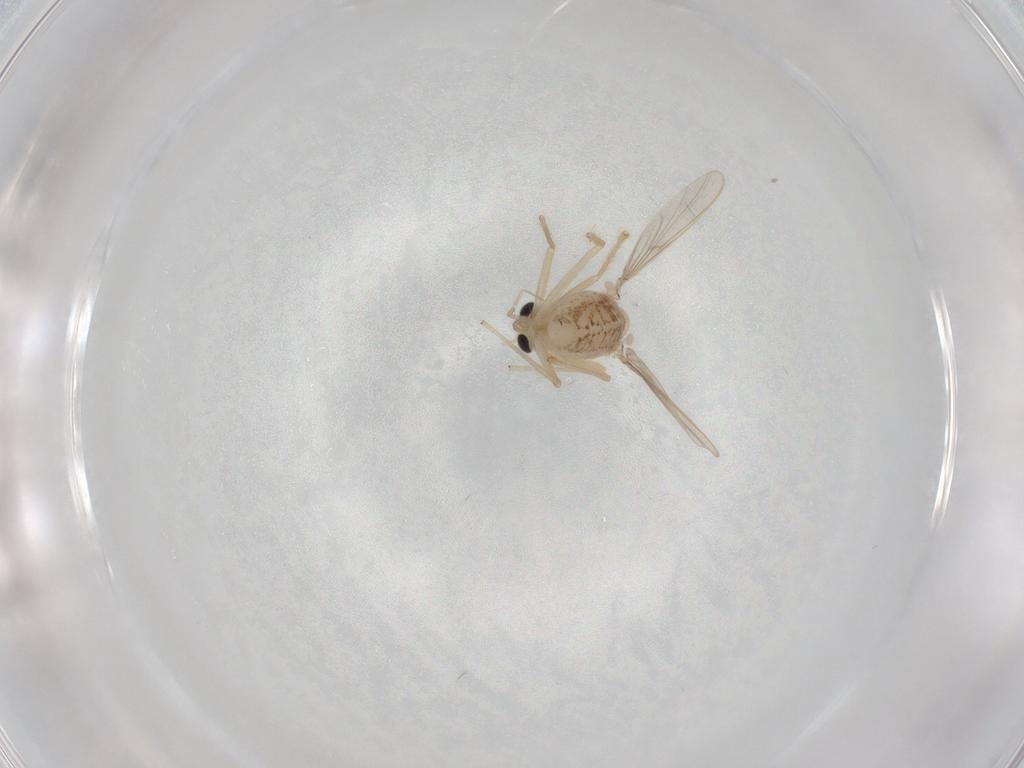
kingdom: Animalia
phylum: Arthropoda
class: Insecta
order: Diptera
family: Chironomidae
